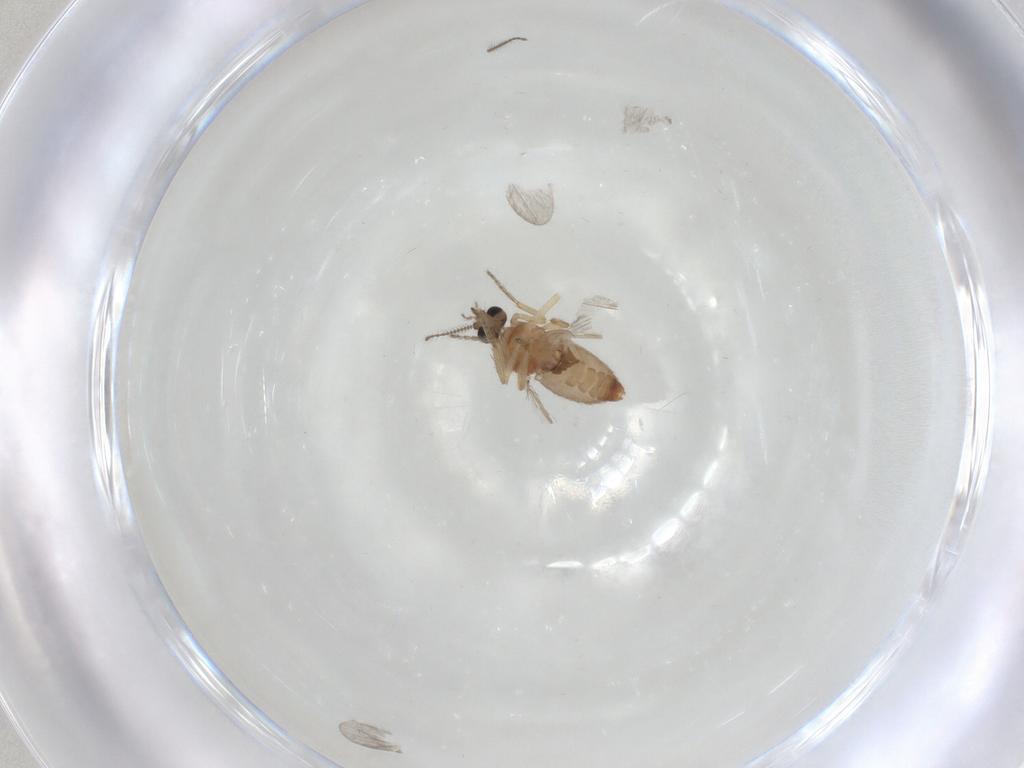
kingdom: Animalia
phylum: Arthropoda
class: Insecta
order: Diptera
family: Ceratopogonidae
